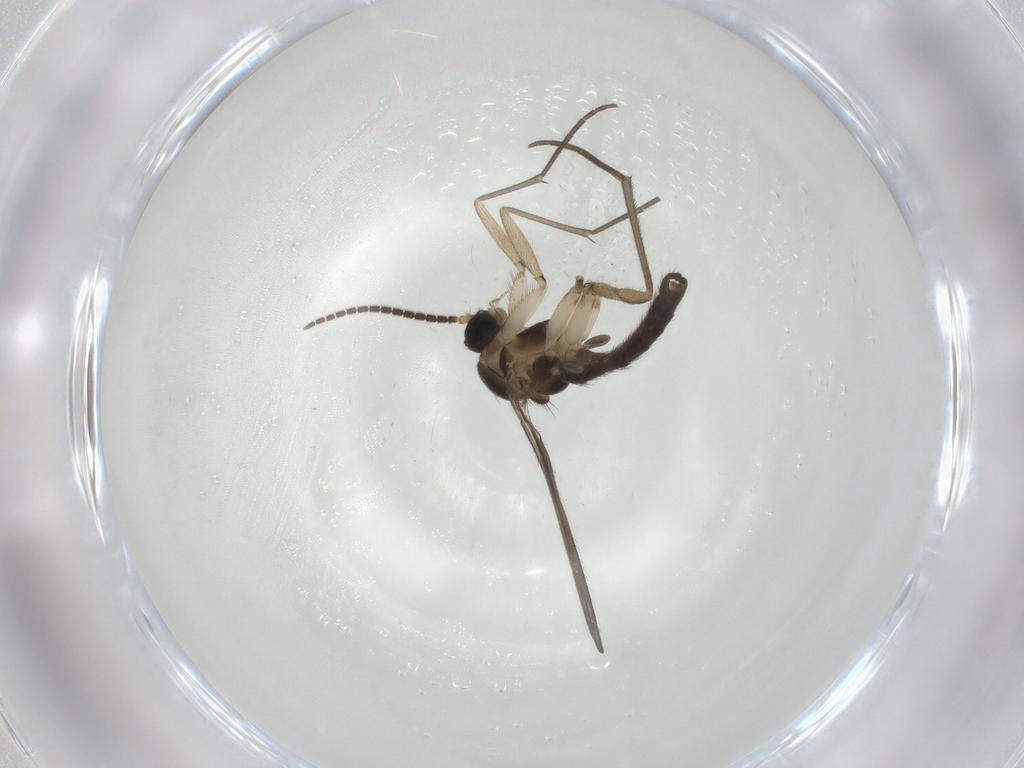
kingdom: Animalia
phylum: Arthropoda
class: Insecta
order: Diptera
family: Sciaridae
